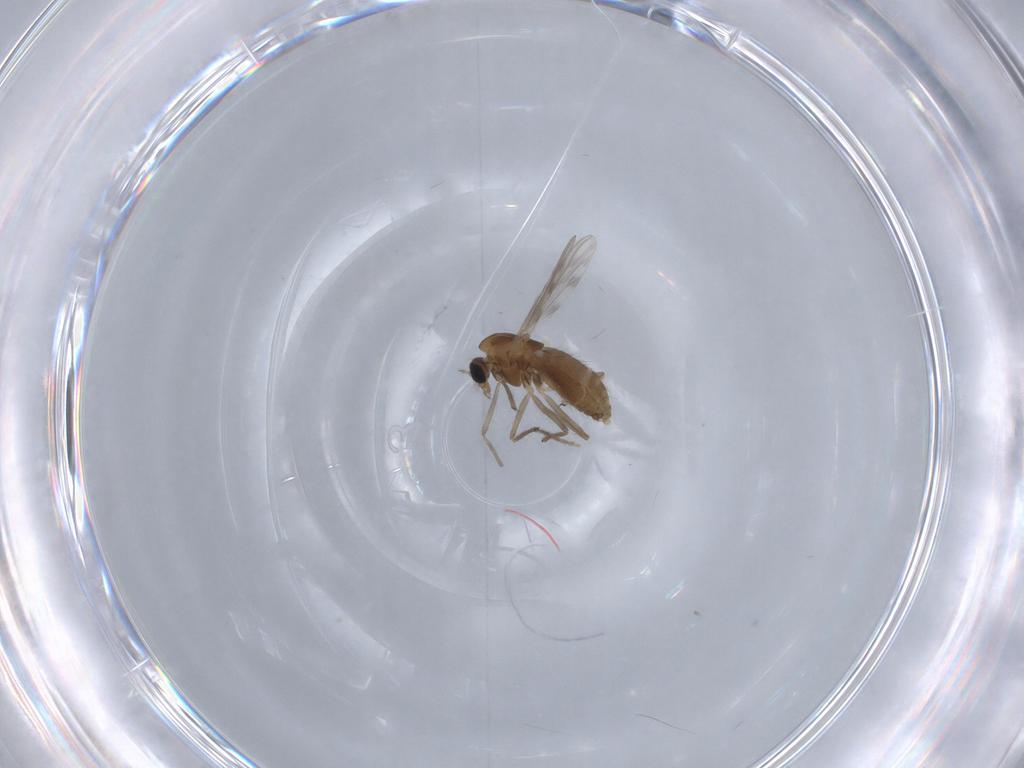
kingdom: Animalia
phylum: Arthropoda
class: Insecta
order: Diptera
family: Chironomidae
